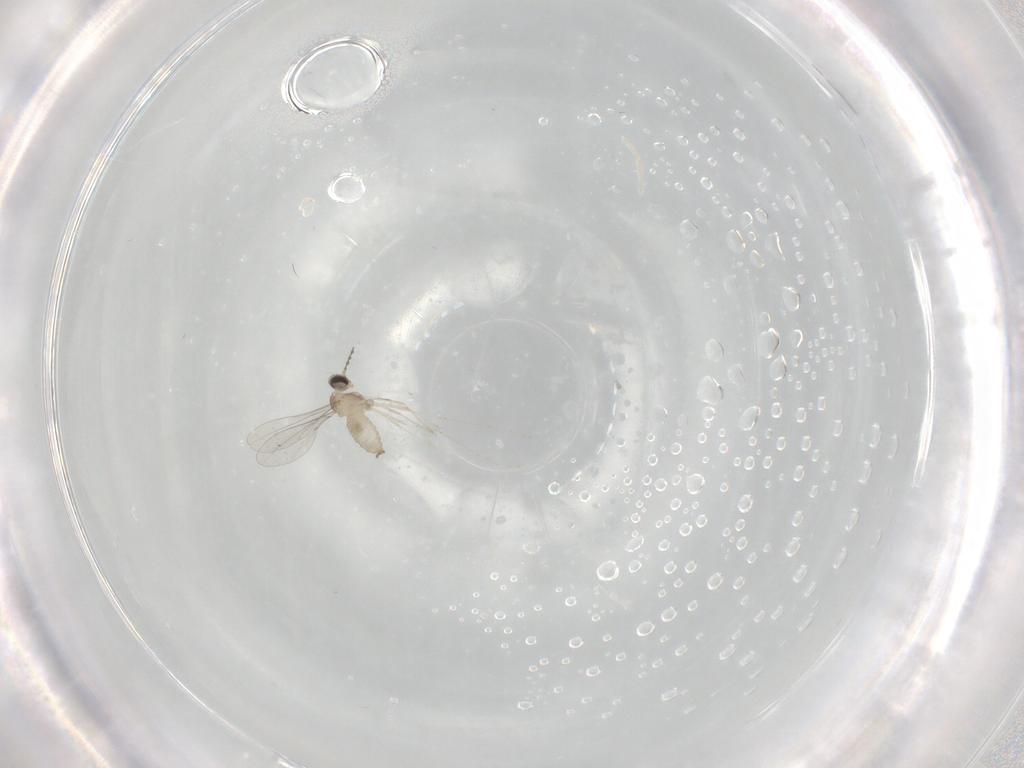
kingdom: Animalia
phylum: Arthropoda
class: Insecta
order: Diptera
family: Cecidomyiidae
